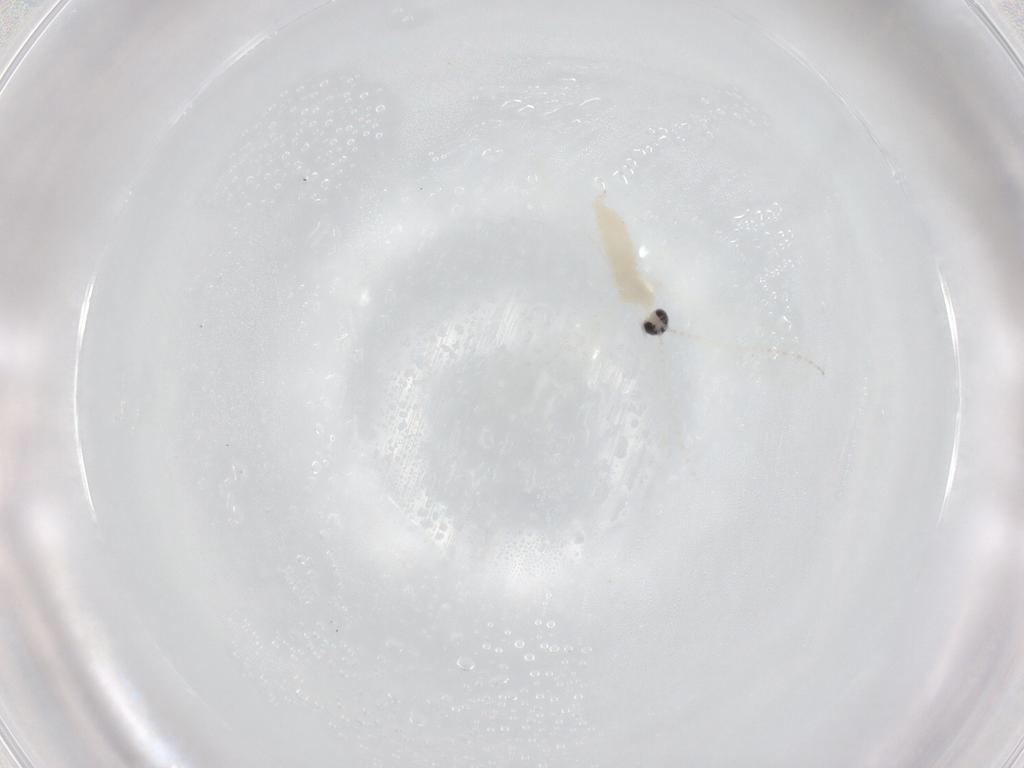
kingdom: Animalia
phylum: Arthropoda
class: Insecta
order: Diptera
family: Cecidomyiidae
